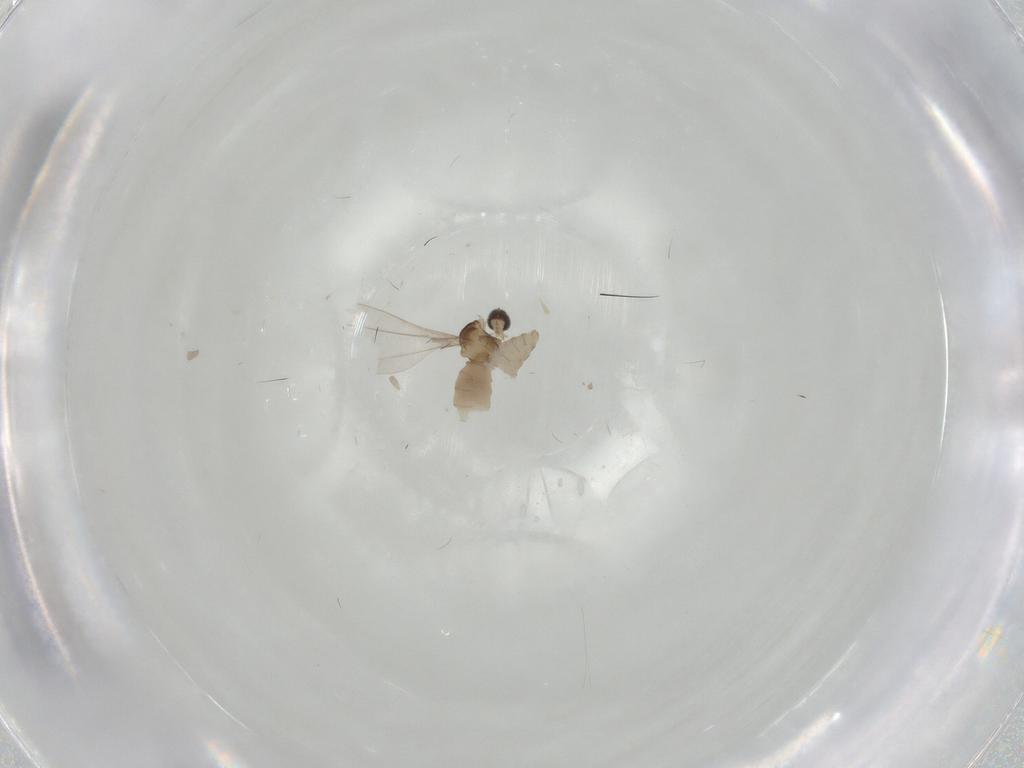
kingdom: Animalia
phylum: Arthropoda
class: Insecta
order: Diptera
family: Cecidomyiidae
